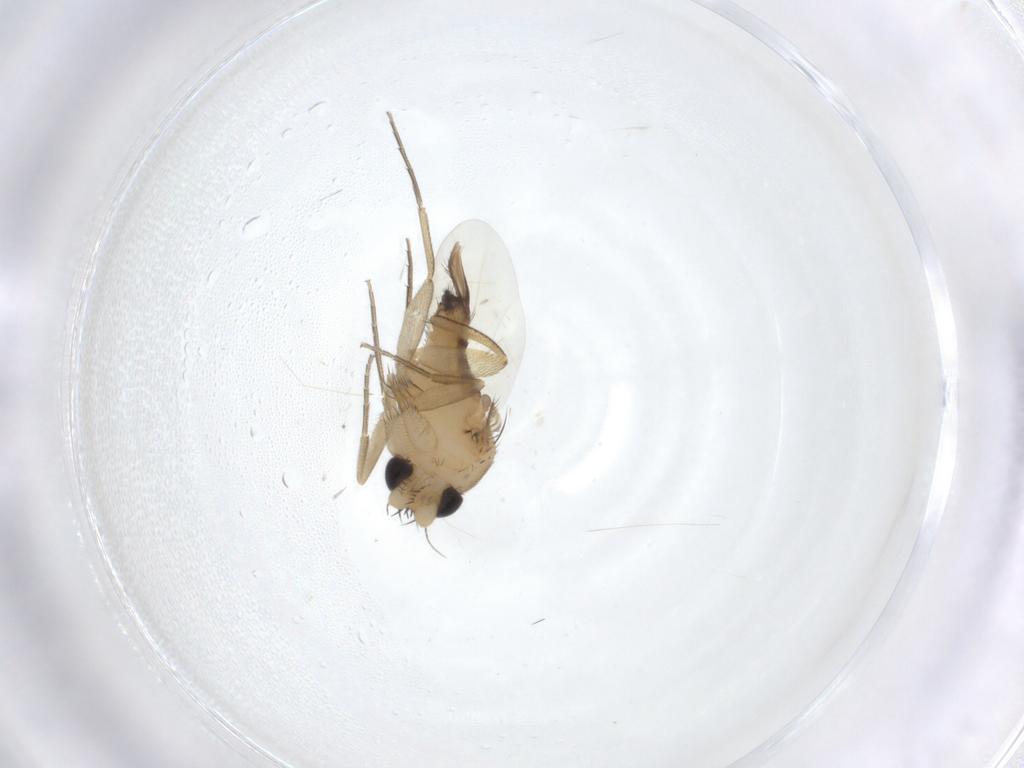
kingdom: Animalia
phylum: Arthropoda
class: Insecta
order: Diptera
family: Phoridae
